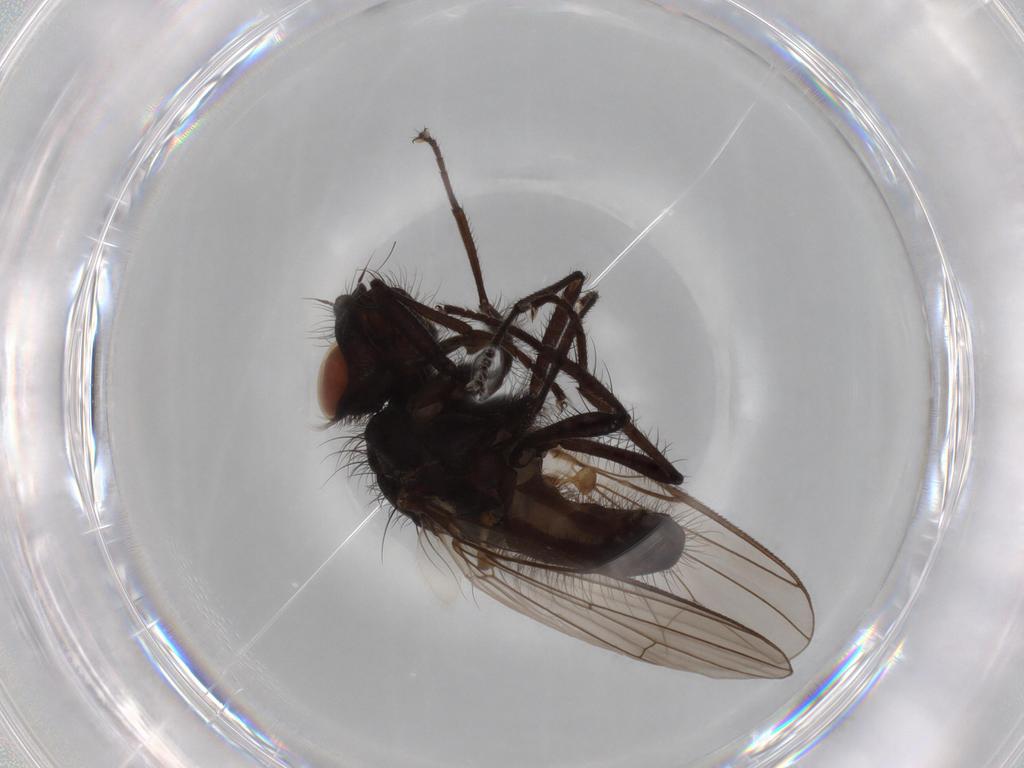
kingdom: Animalia
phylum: Arthropoda
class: Insecta
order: Diptera
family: Anthomyiidae
